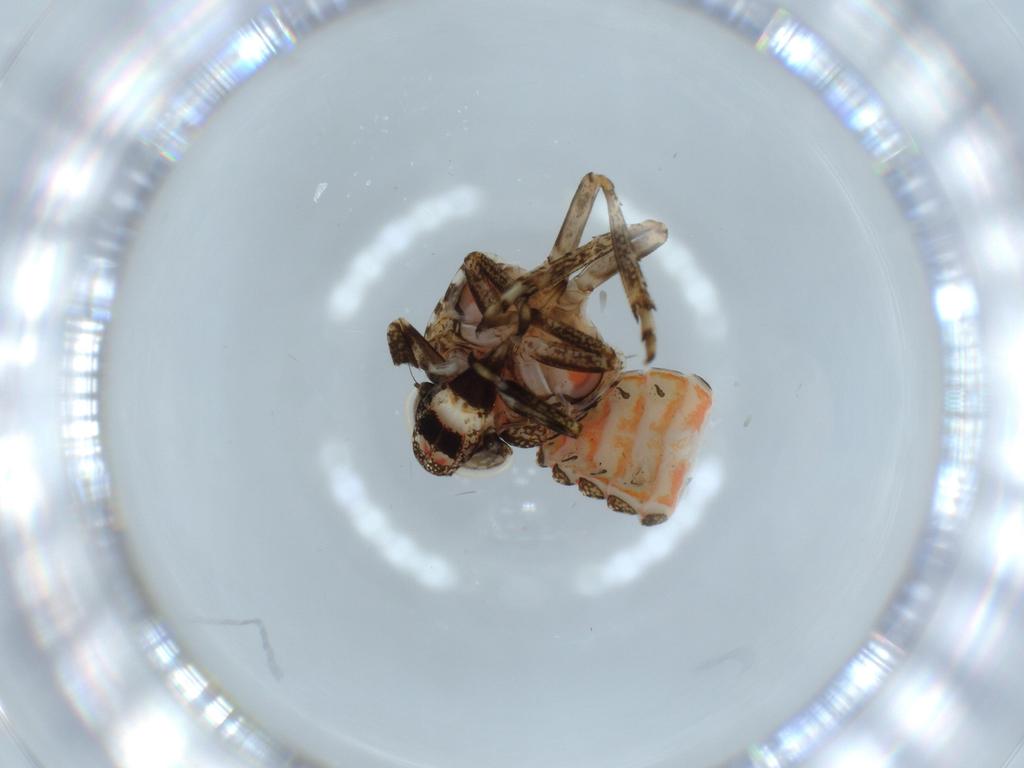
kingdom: Animalia
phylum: Arthropoda
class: Insecta
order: Hemiptera
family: Issidae
